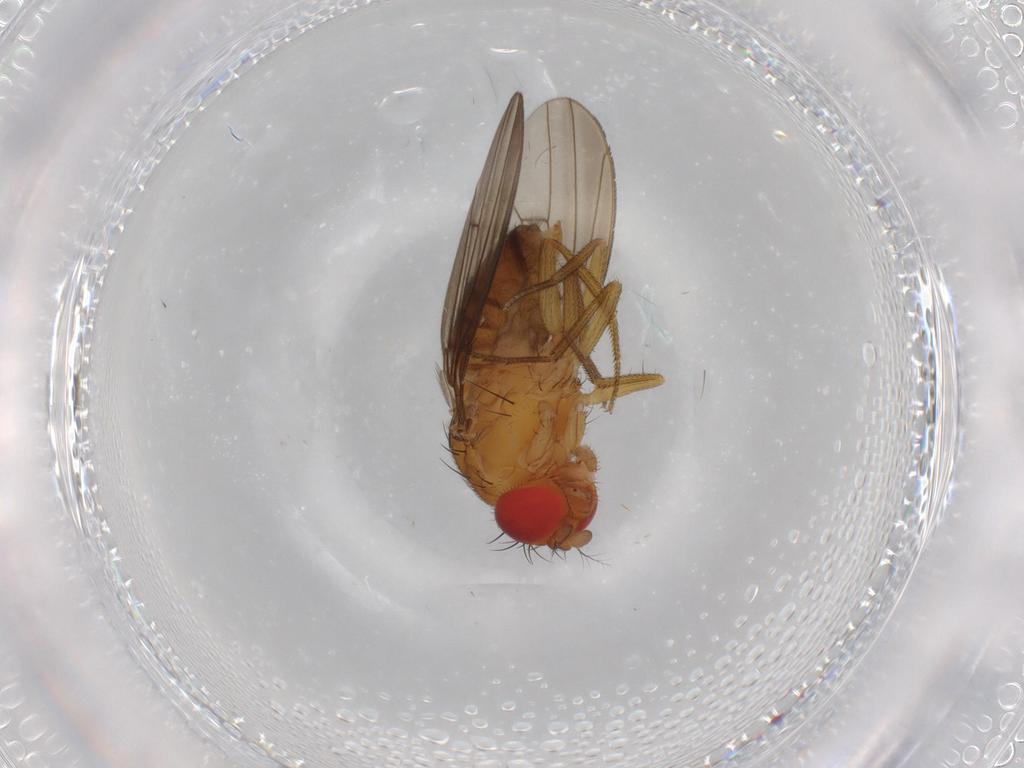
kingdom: Animalia
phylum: Arthropoda
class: Insecta
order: Diptera
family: Drosophilidae
